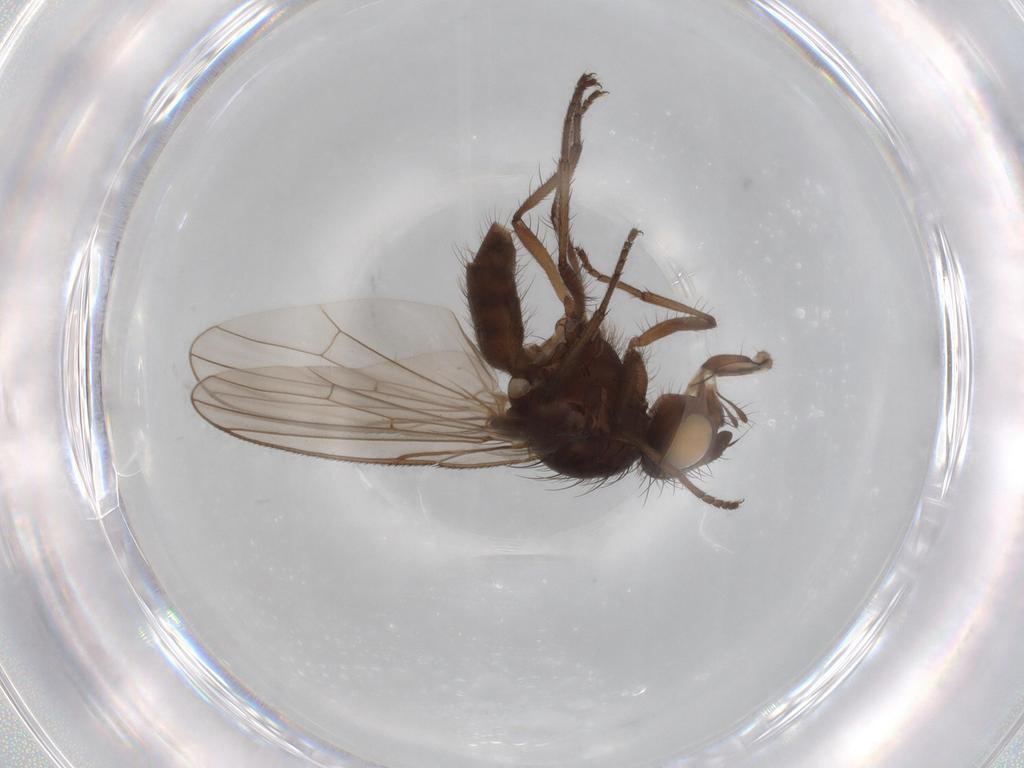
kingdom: Animalia
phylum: Arthropoda
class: Insecta
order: Diptera
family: Anthomyiidae
